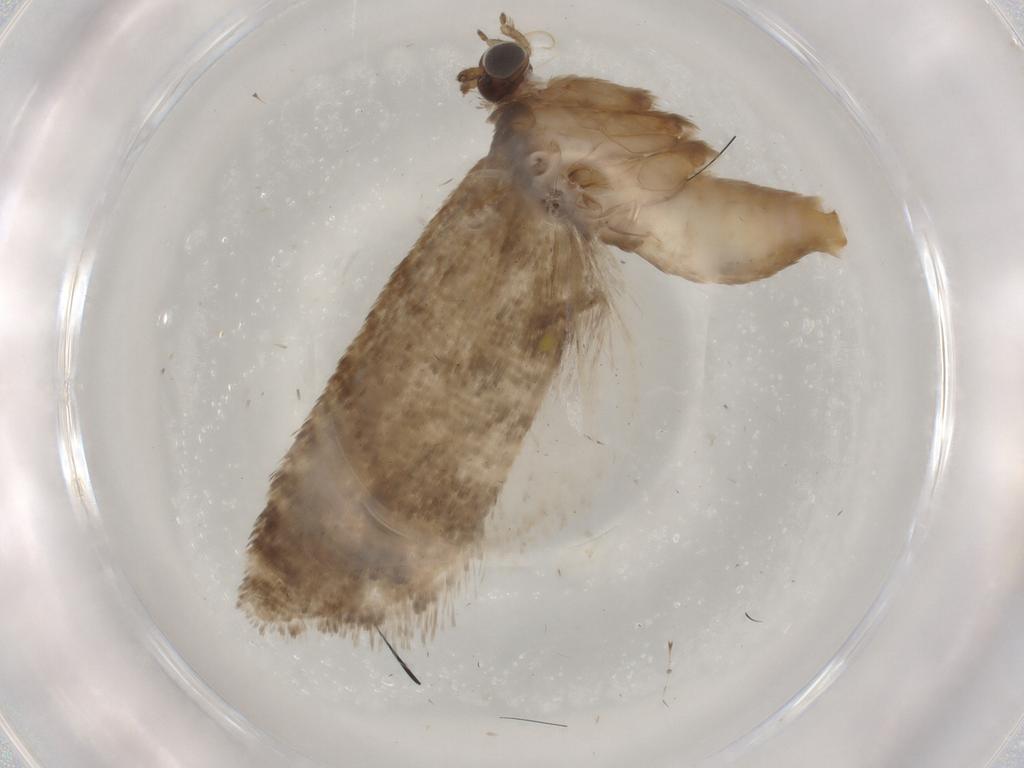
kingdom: Animalia
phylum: Arthropoda
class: Insecta
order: Lepidoptera
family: Tortricidae
